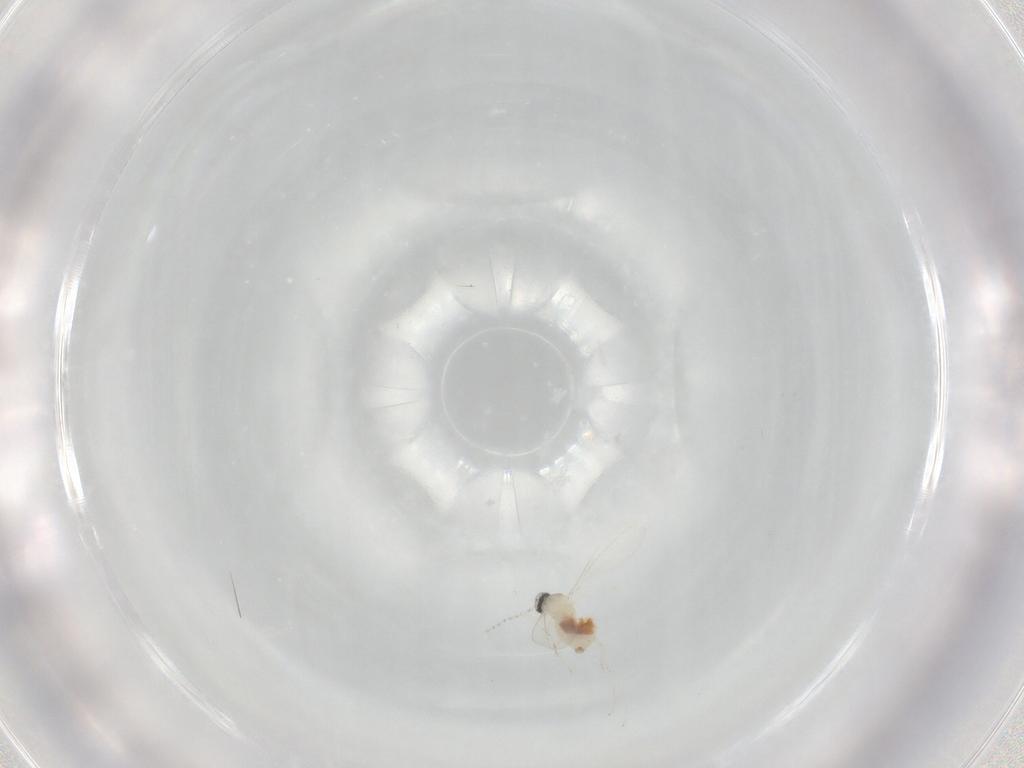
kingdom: Animalia
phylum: Arthropoda
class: Insecta
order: Diptera
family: Cecidomyiidae
